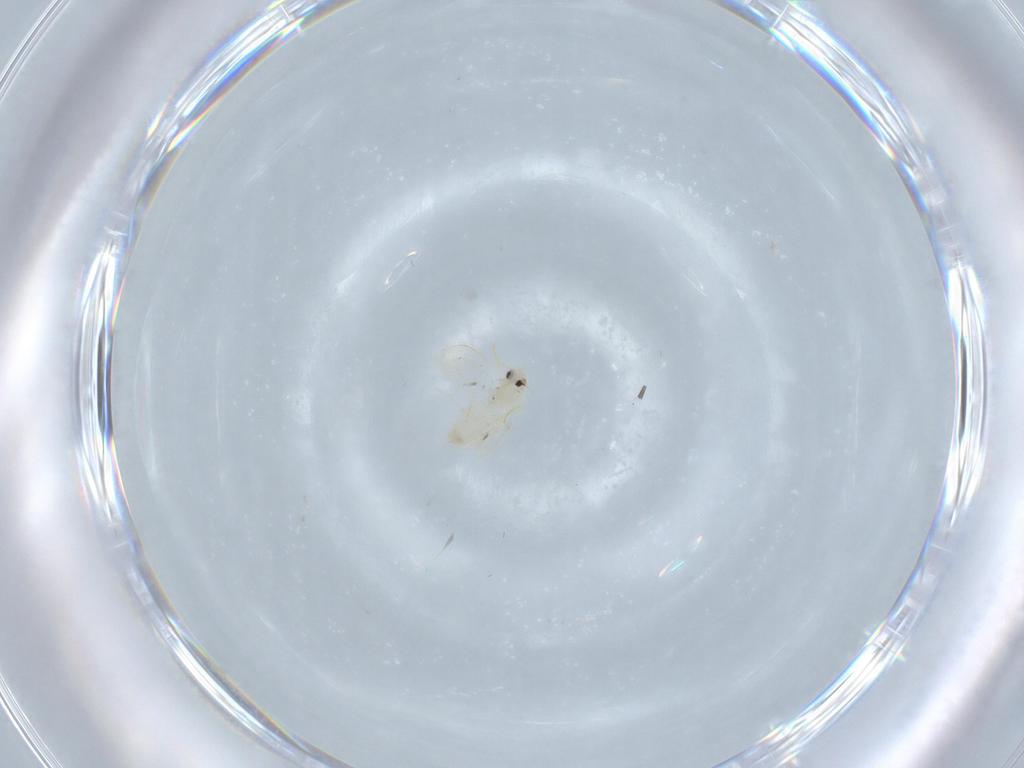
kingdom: Animalia
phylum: Arthropoda
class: Insecta
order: Hemiptera
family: Aleyrodidae
